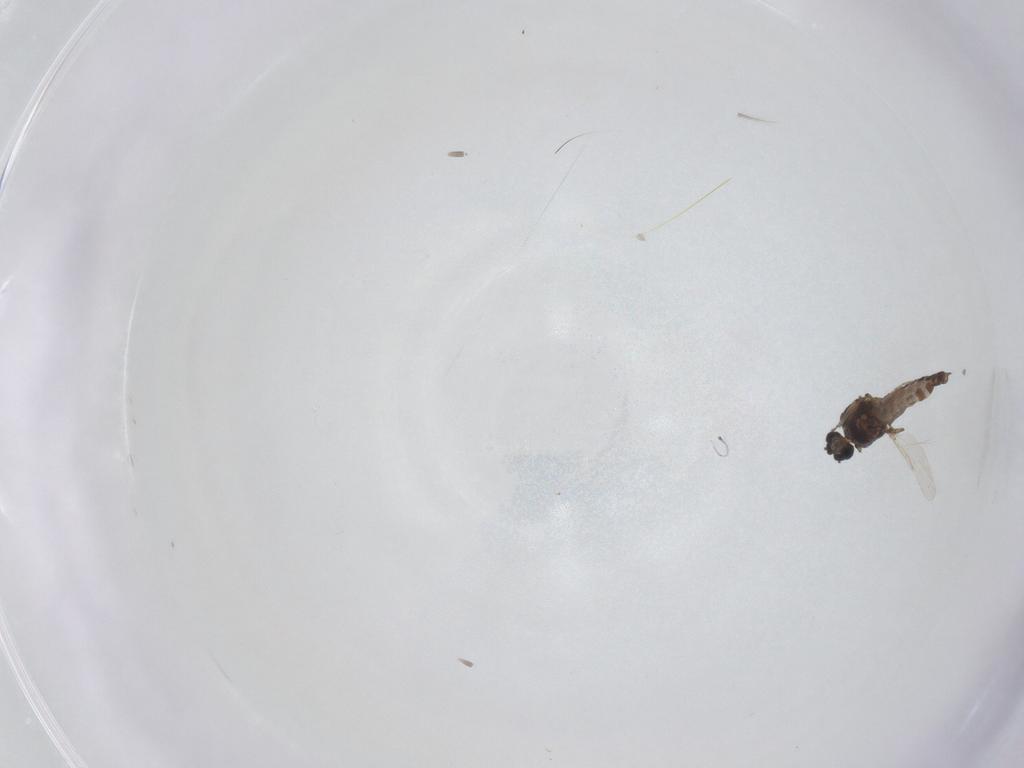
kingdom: Animalia
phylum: Arthropoda
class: Insecta
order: Diptera
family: Ceratopogonidae
